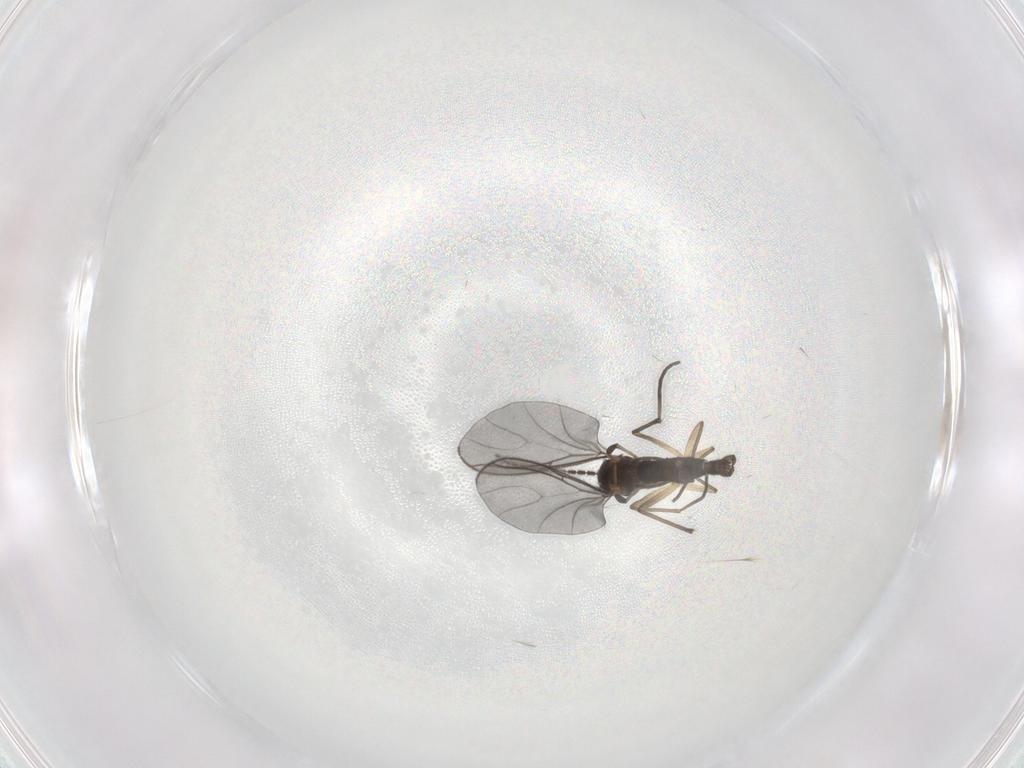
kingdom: Animalia
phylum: Arthropoda
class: Insecta
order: Diptera
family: Sciaridae
